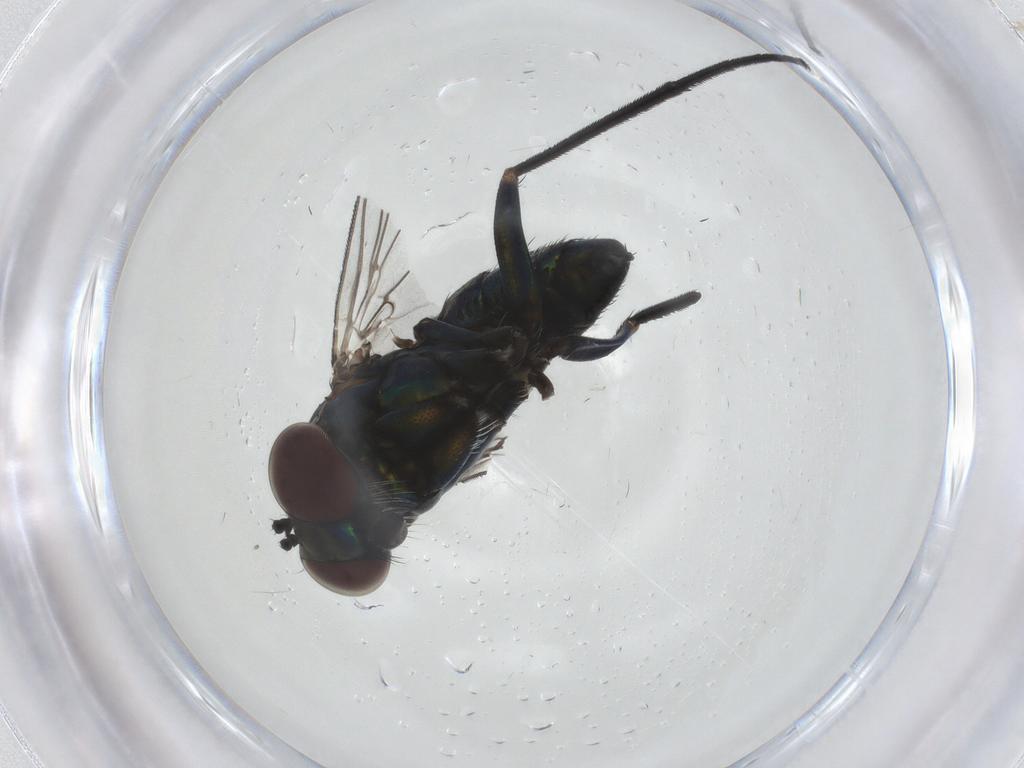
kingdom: Animalia
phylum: Arthropoda
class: Insecta
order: Diptera
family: Dolichopodidae
